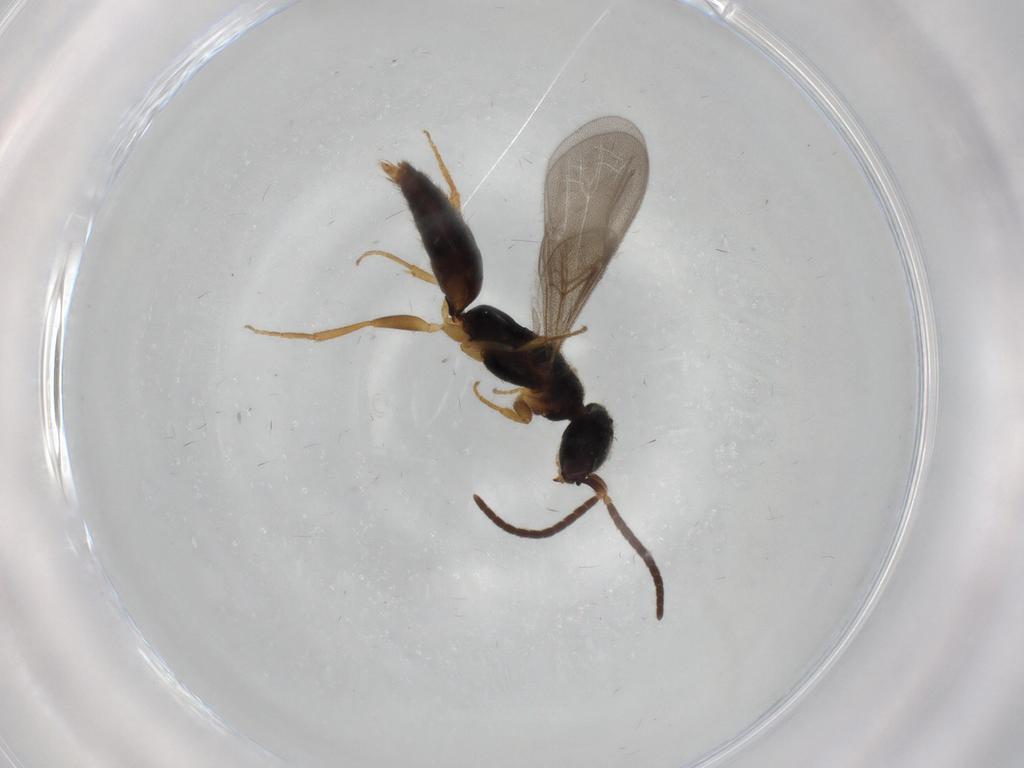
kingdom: Animalia
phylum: Arthropoda
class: Insecta
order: Hymenoptera
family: Bethylidae
